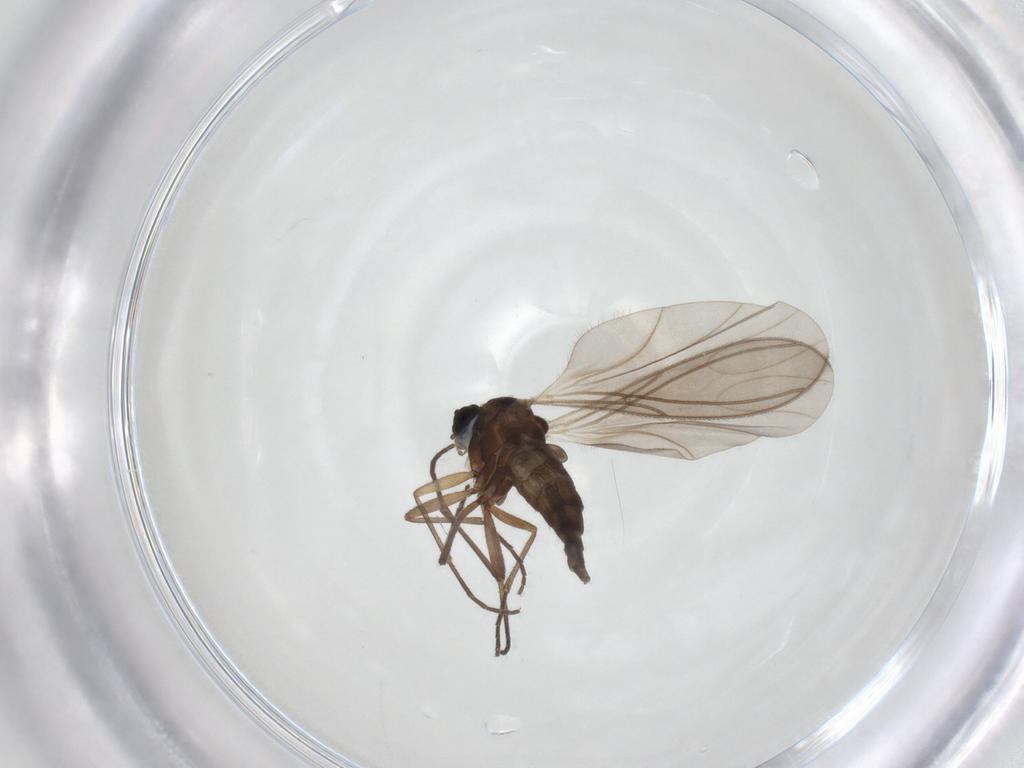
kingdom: Animalia
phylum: Arthropoda
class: Insecta
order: Diptera
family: Sciaridae
